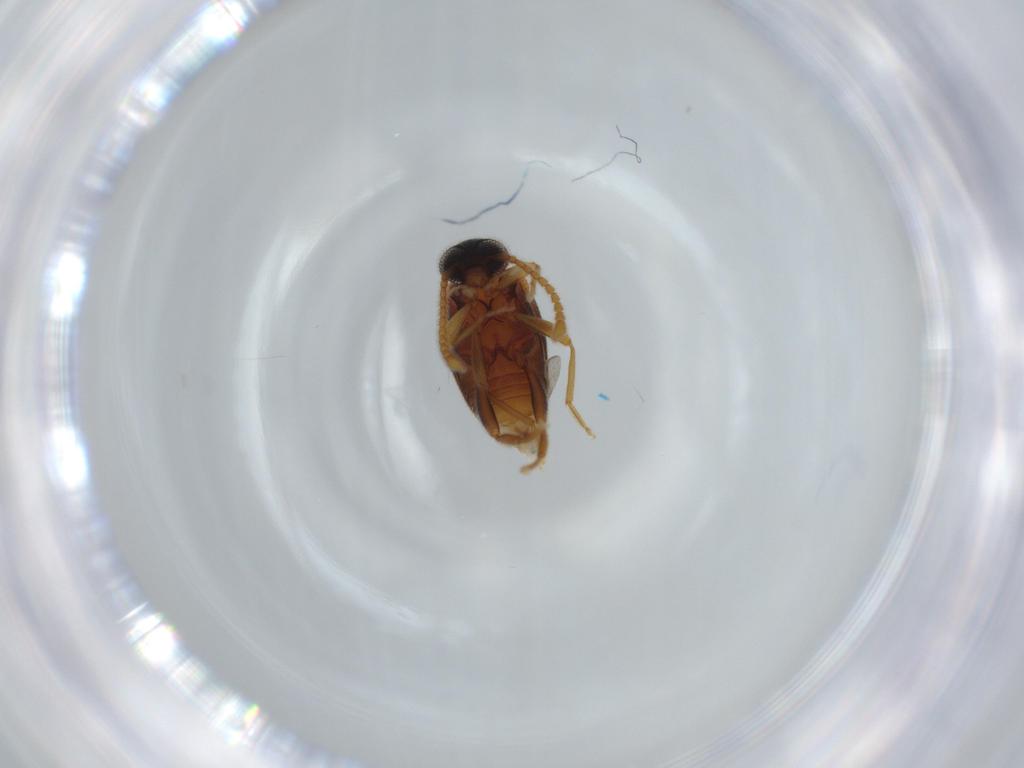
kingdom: Animalia
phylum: Arthropoda
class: Insecta
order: Coleoptera
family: Aderidae
